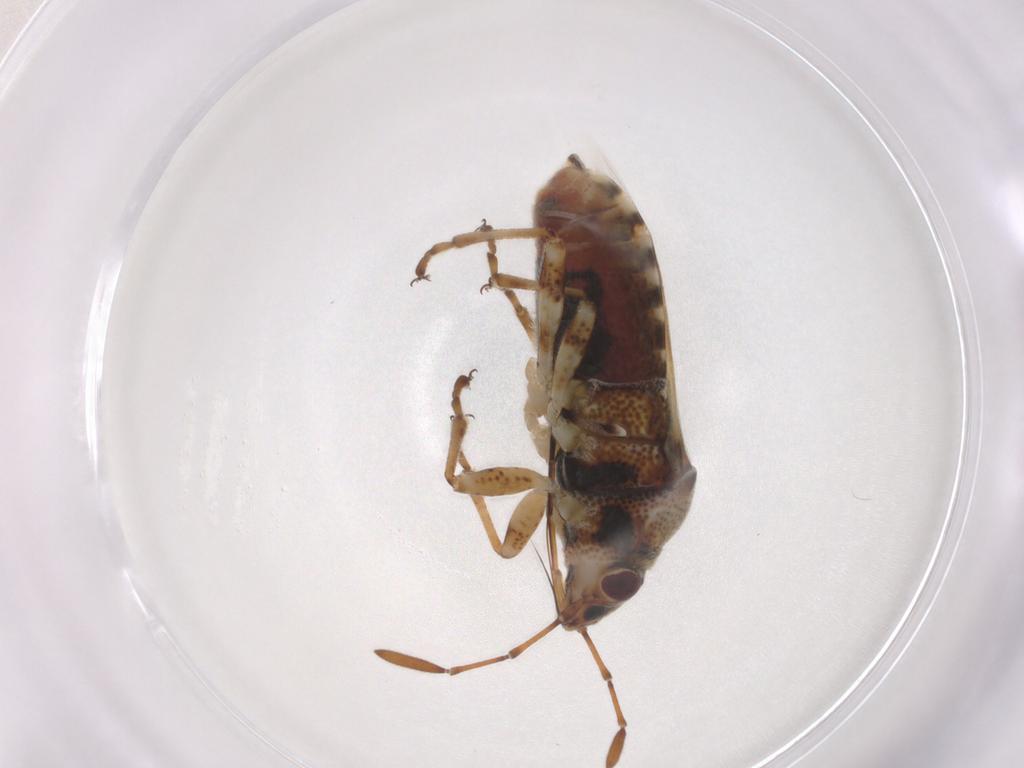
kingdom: Animalia
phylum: Arthropoda
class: Insecta
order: Hemiptera
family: Lygaeidae
